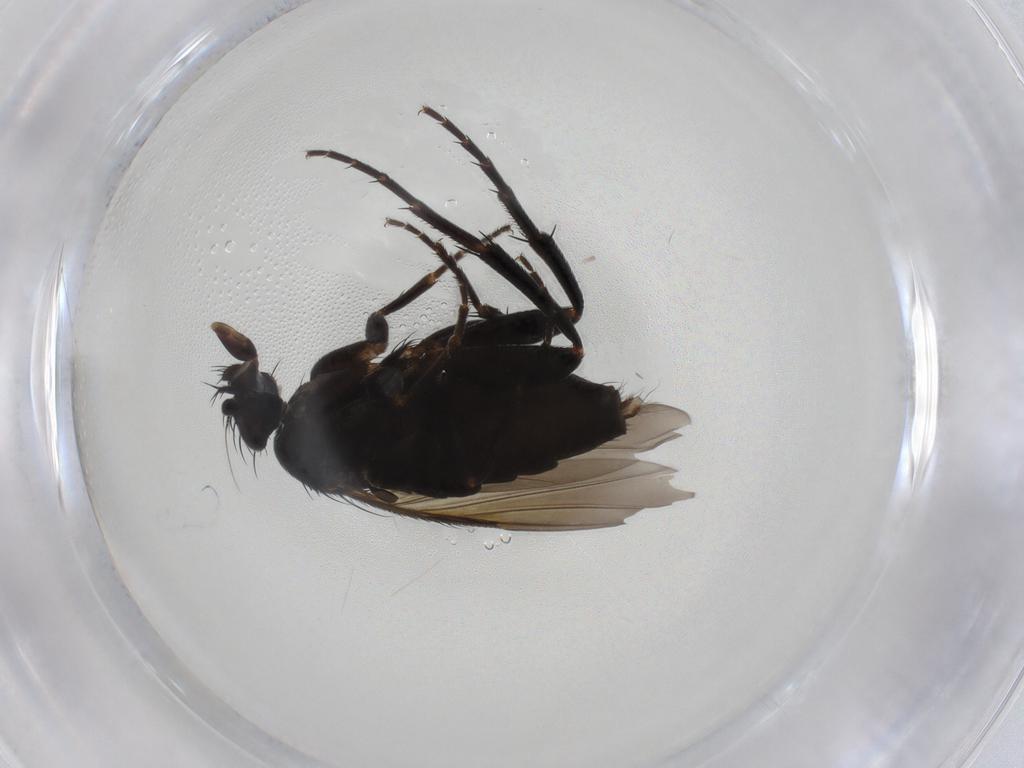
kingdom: Animalia
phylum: Arthropoda
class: Insecta
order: Diptera
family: Phoridae
